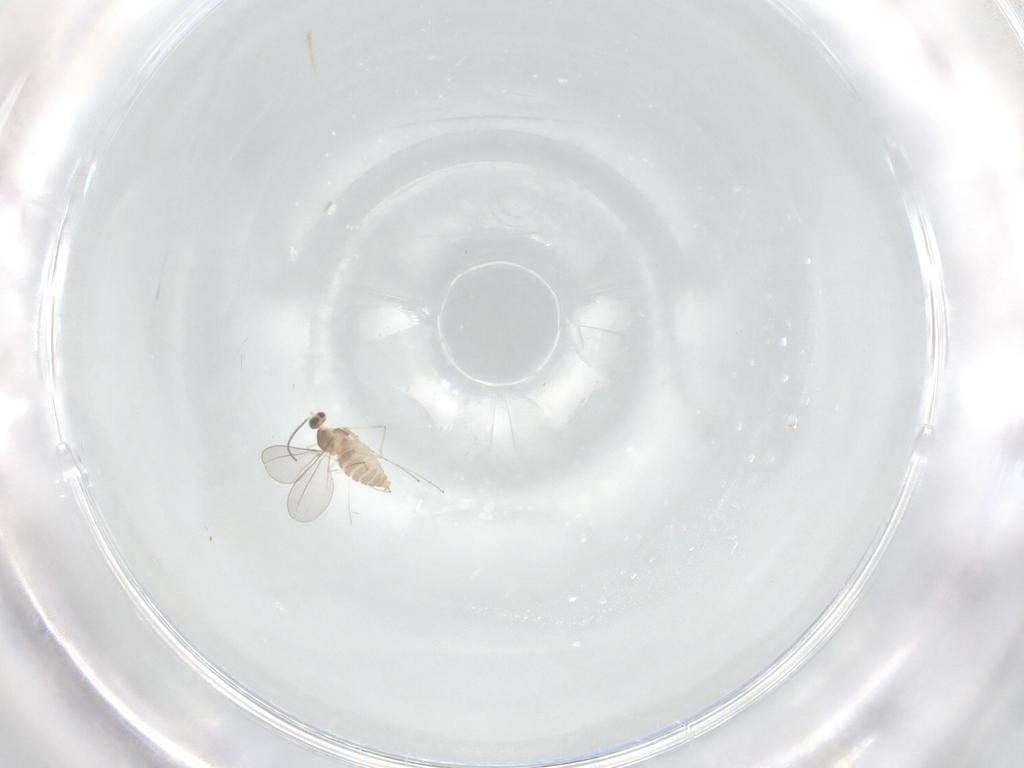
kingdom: Animalia
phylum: Arthropoda
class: Insecta
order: Diptera
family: Cecidomyiidae
